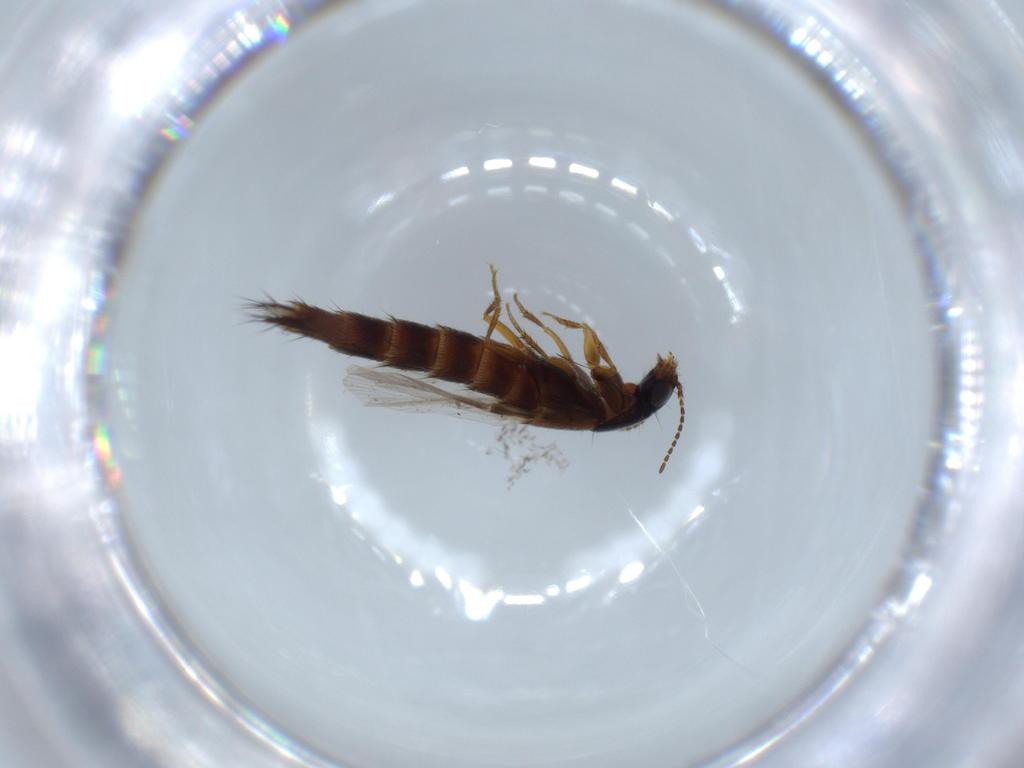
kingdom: Animalia
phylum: Arthropoda
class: Insecta
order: Coleoptera
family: Staphylinidae
